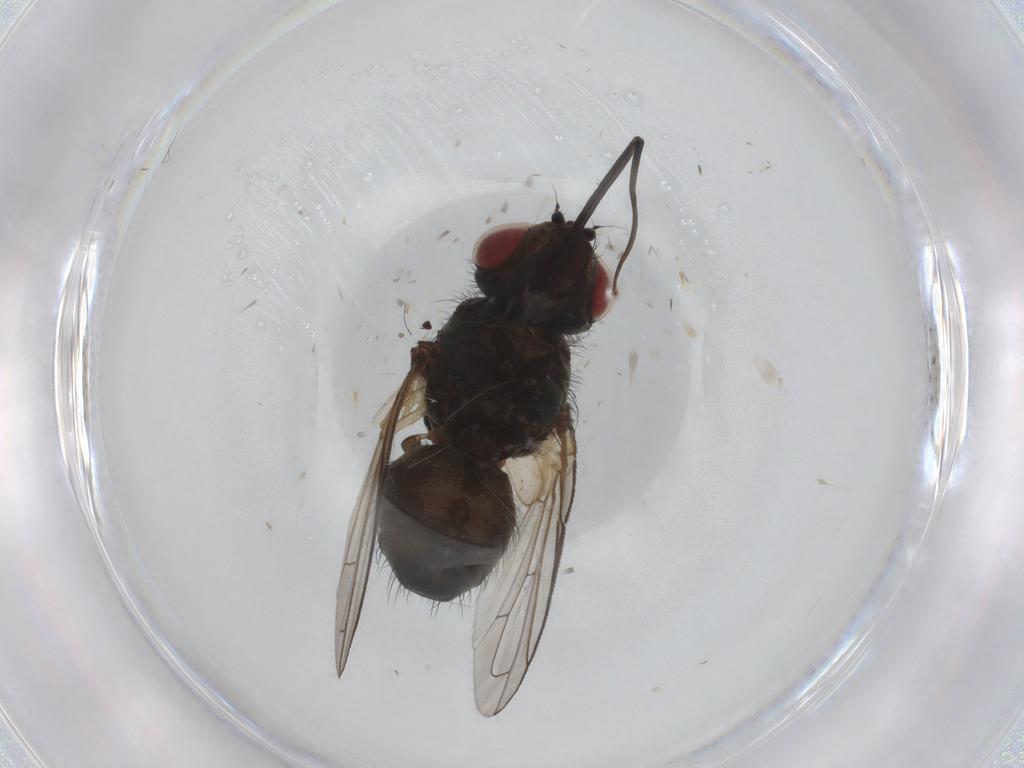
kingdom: Animalia
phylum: Arthropoda
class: Insecta
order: Diptera
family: Tachinidae
